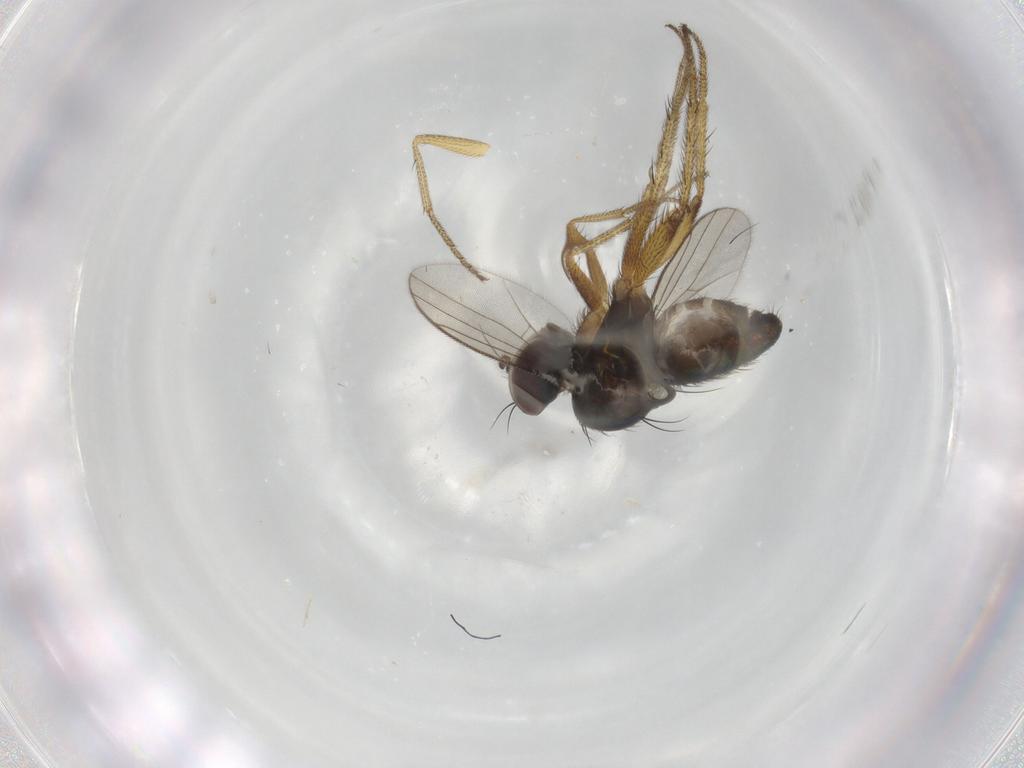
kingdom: Animalia
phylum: Arthropoda
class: Insecta
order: Diptera
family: Dolichopodidae
